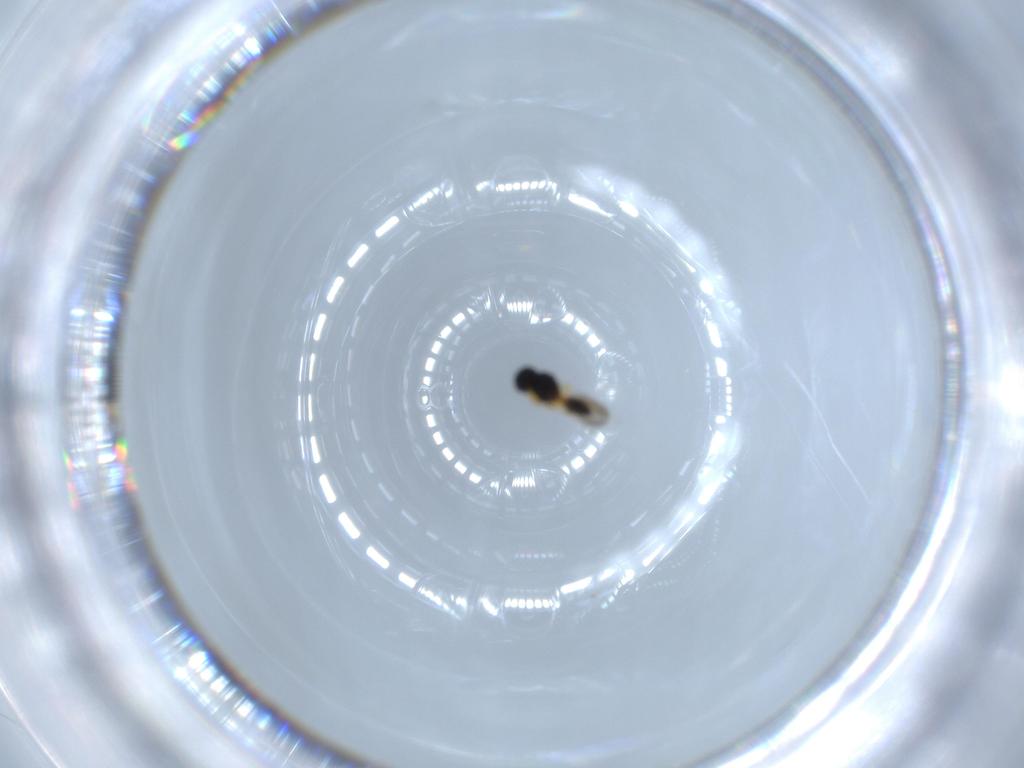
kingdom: Animalia
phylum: Arthropoda
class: Insecta
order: Hymenoptera
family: Platygastridae
